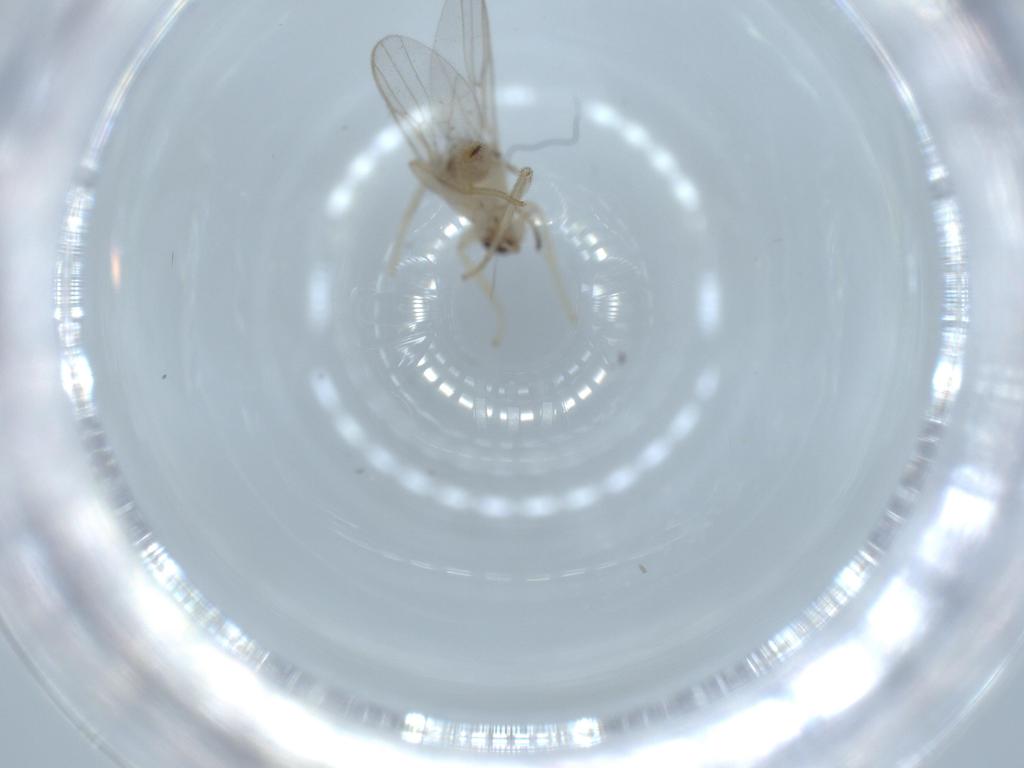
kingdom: Animalia
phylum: Arthropoda
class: Insecta
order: Diptera
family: Hybotidae
